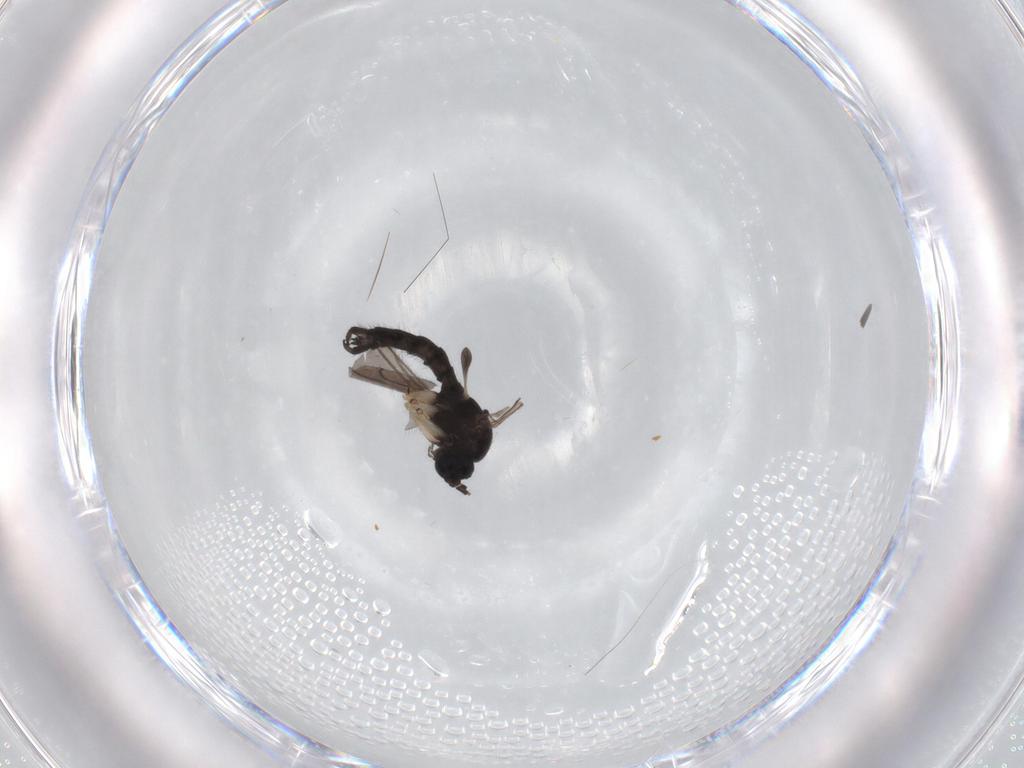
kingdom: Animalia
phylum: Arthropoda
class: Insecta
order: Diptera
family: Sciaridae
